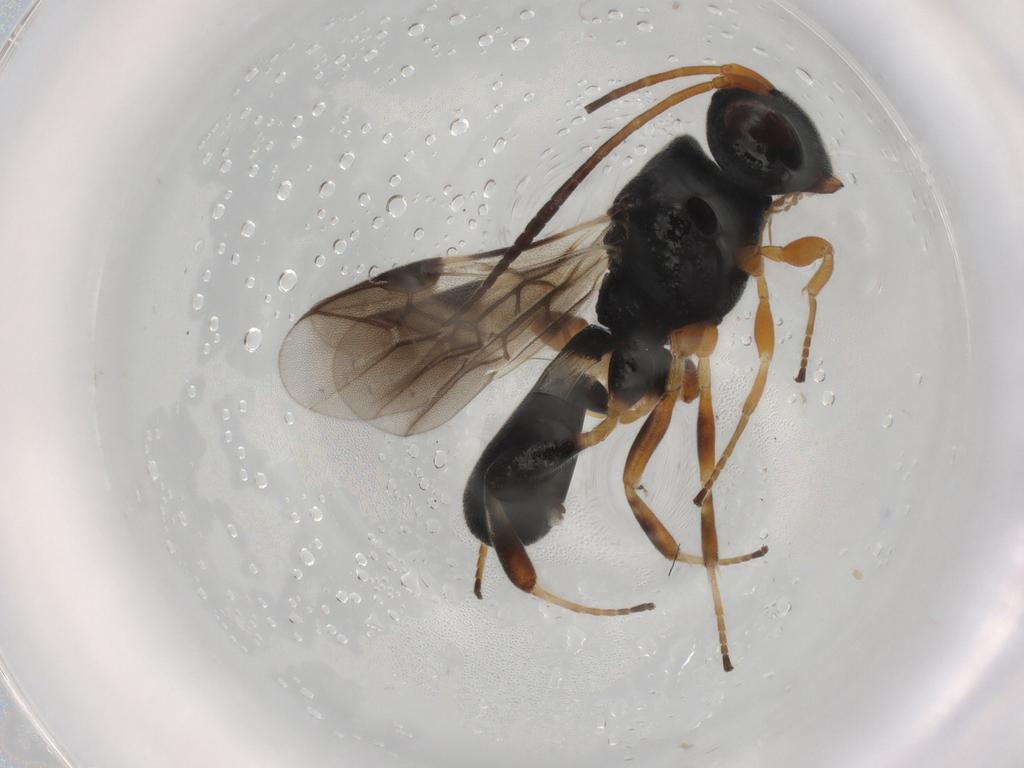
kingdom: Animalia
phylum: Arthropoda
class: Insecta
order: Hymenoptera
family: Braconidae
